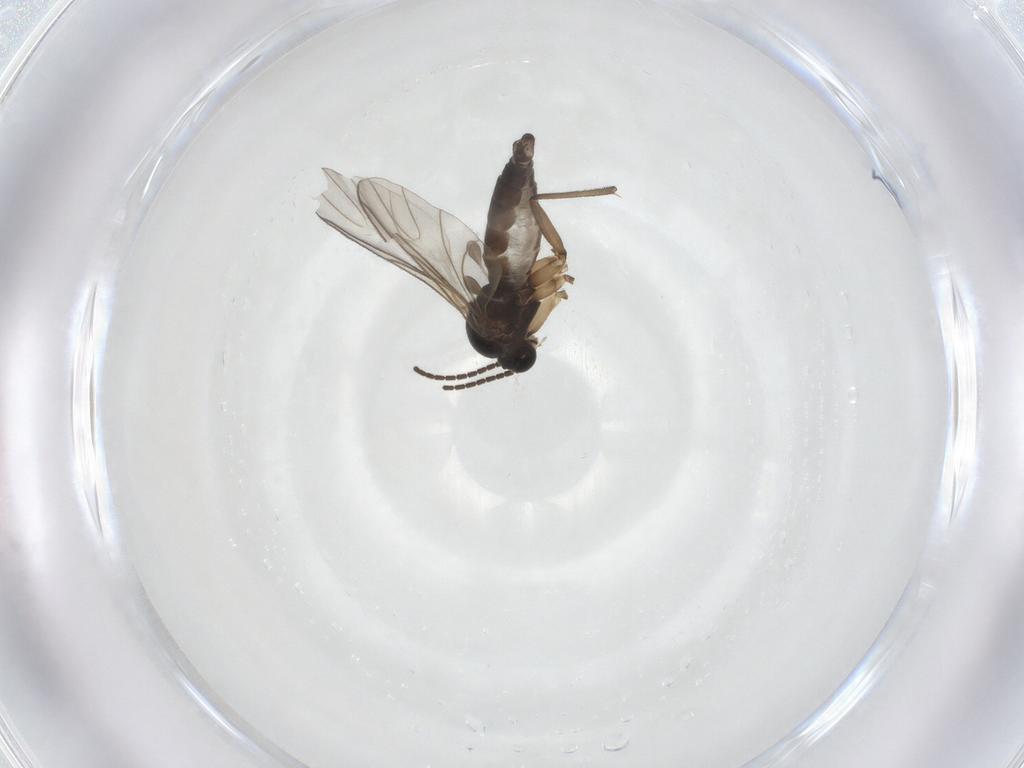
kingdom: Animalia
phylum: Arthropoda
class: Insecta
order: Diptera
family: Sciaridae
